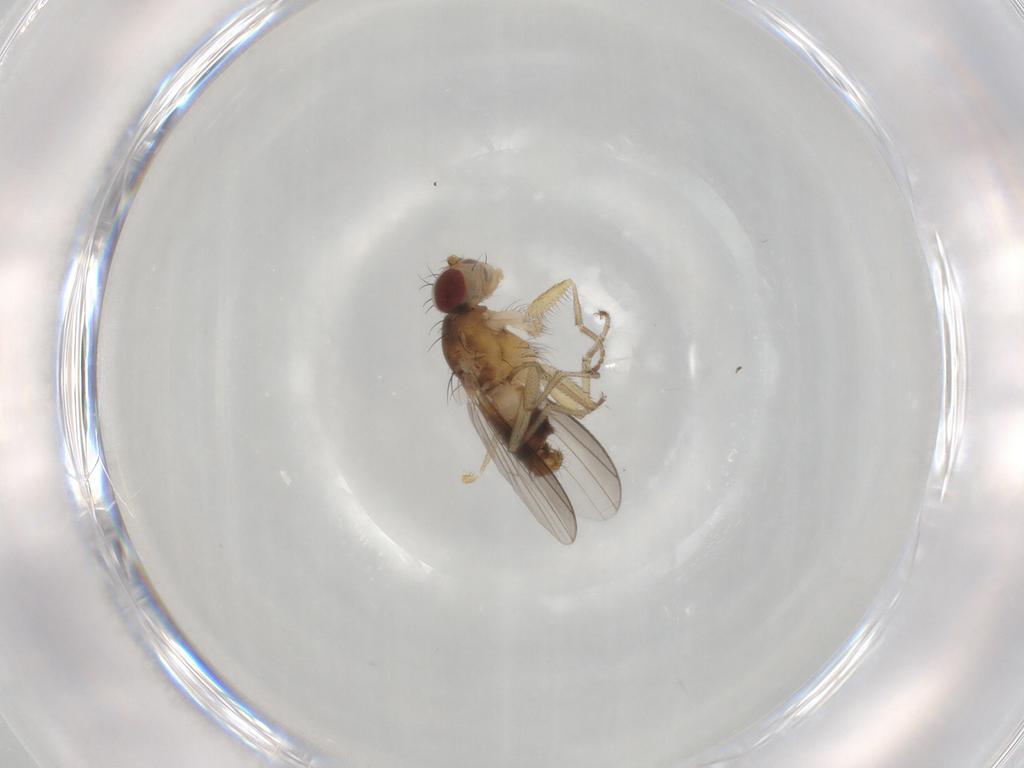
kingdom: Animalia
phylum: Arthropoda
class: Insecta
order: Diptera
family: Heleomyzidae
